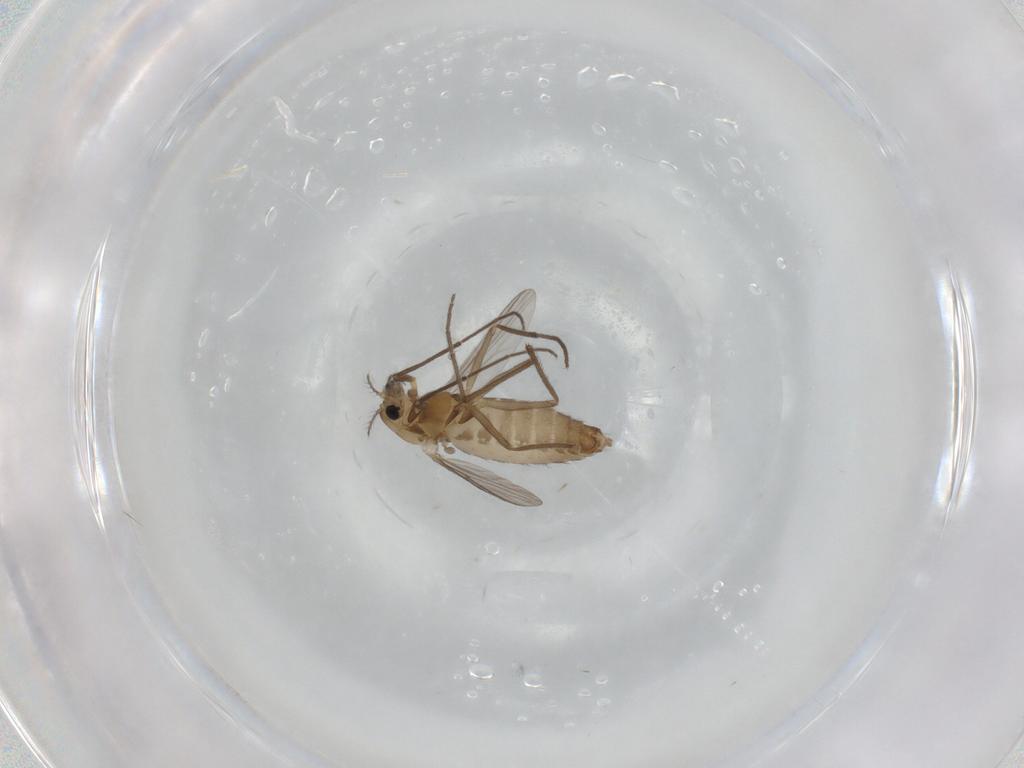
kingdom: Animalia
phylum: Arthropoda
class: Insecta
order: Diptera
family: Chironomidae
